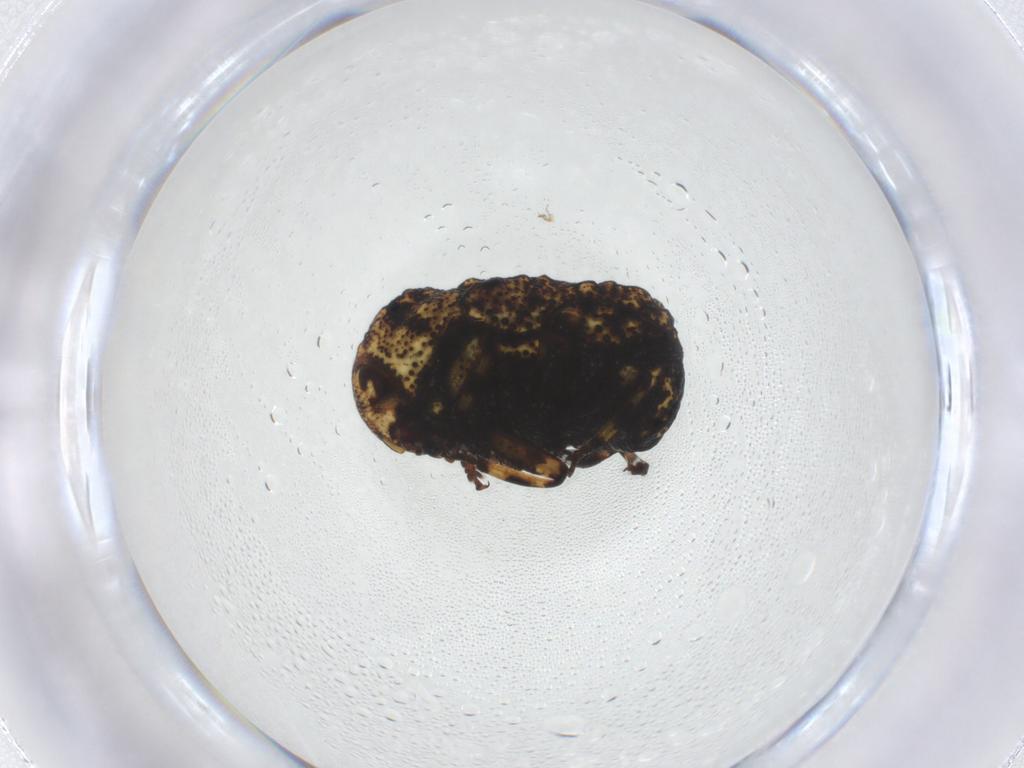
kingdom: Animalia
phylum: Arthropoda
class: Insecta
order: Coleoptera
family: Chrysomelidae
